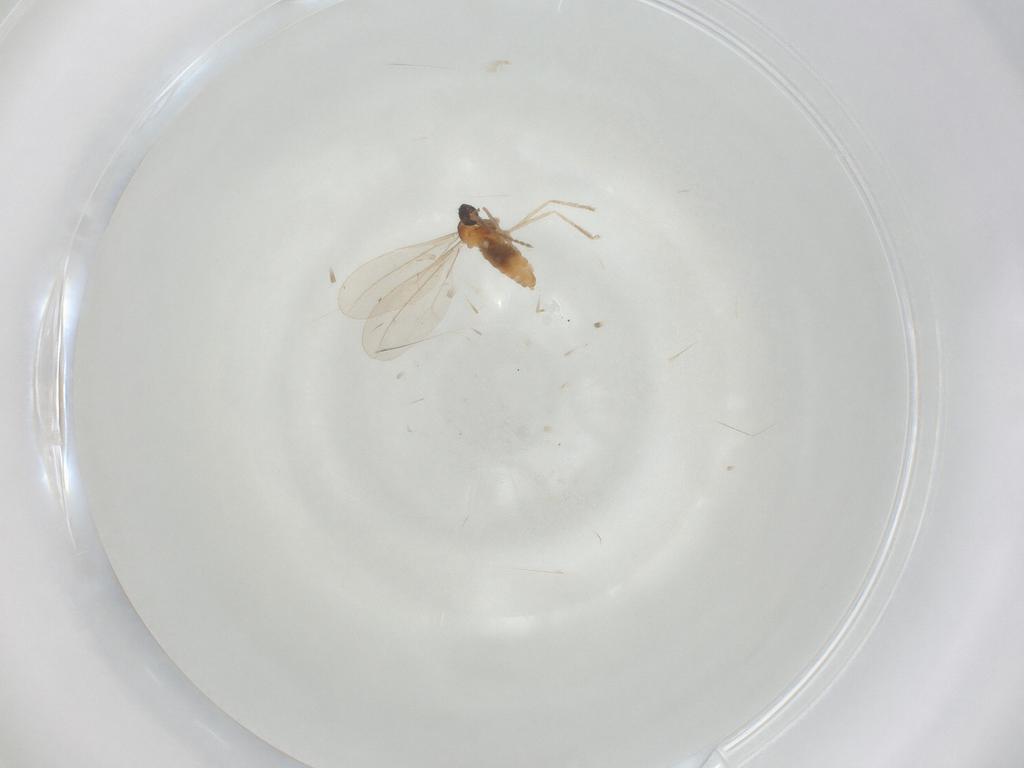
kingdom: Animalia
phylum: Arthropoda
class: Insecta
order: Diptera
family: Cecidomyiidae
